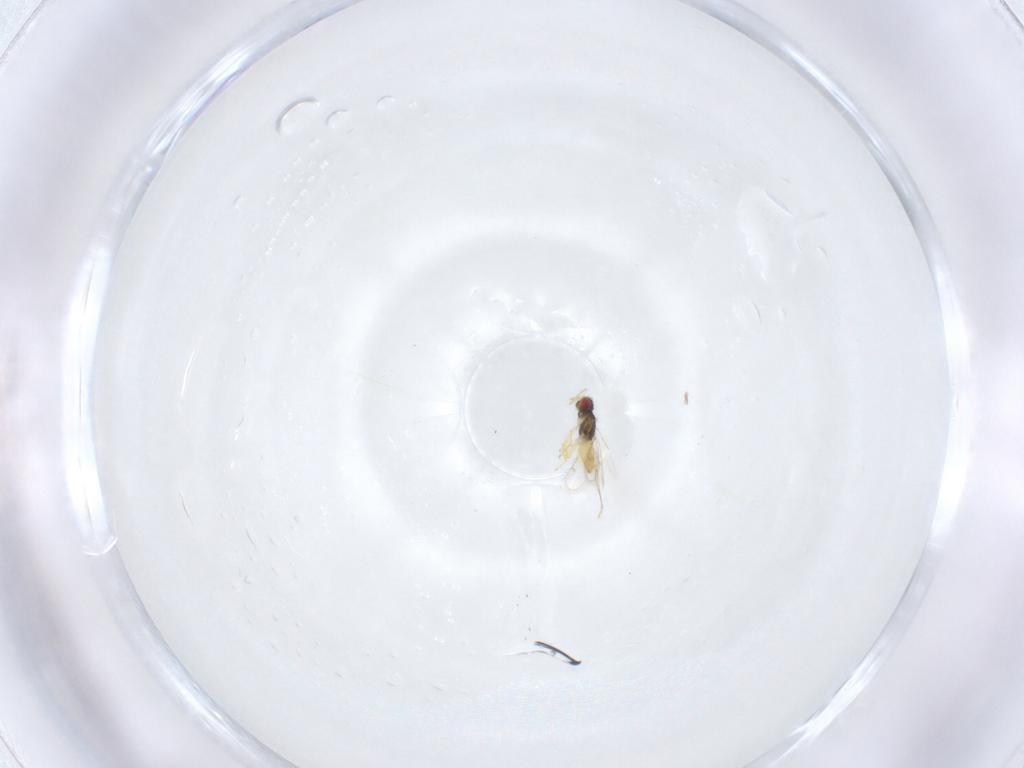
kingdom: Animalia
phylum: Arthropoda
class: Insecta
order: Hymenoptera
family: Eulophidae
